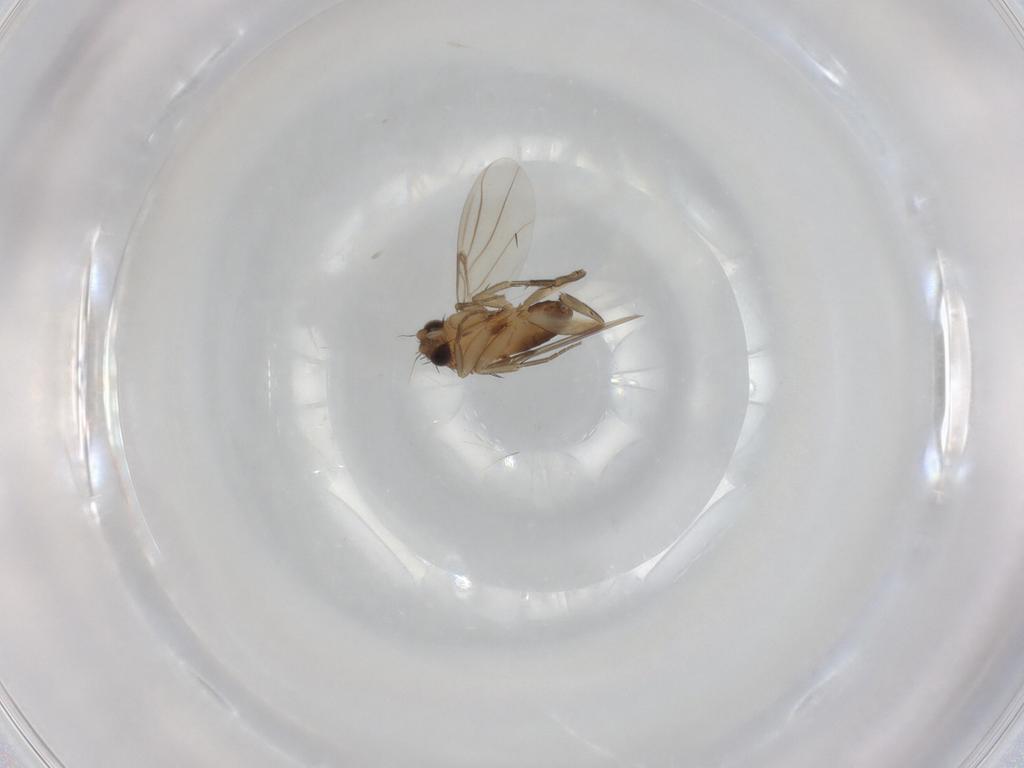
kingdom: Animalia
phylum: Arthropoda
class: Insecta
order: Diptera
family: Phoridae
